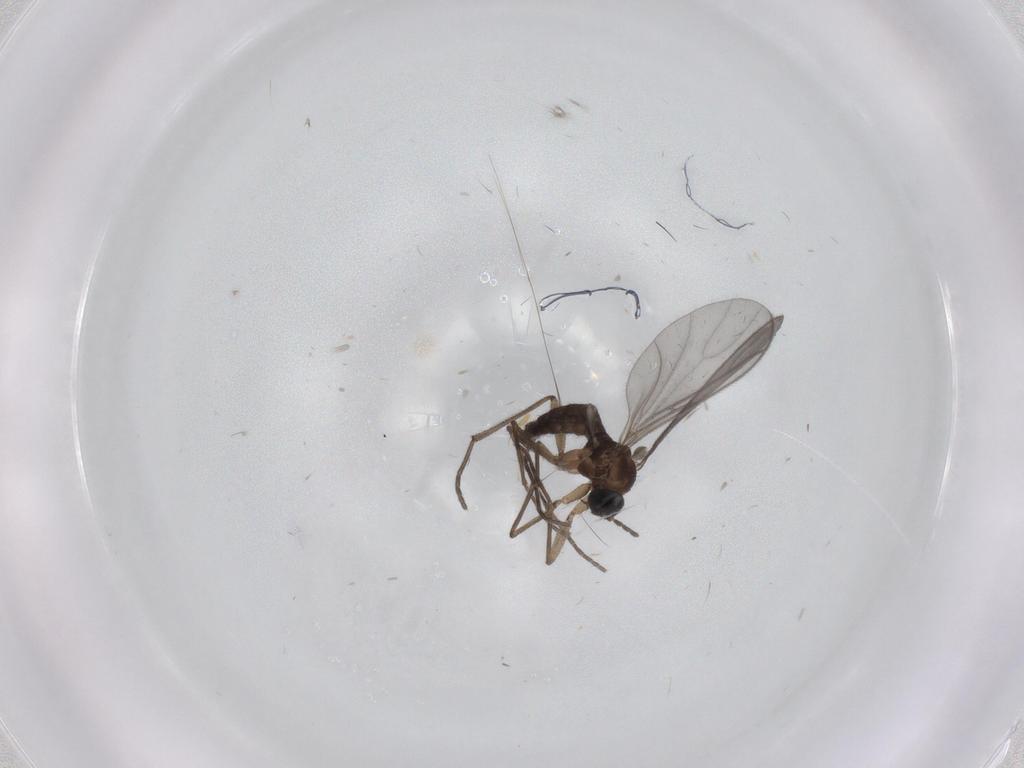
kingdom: Animalia
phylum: Arthropoda
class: Insecta
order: Diptera
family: Sciaridae
